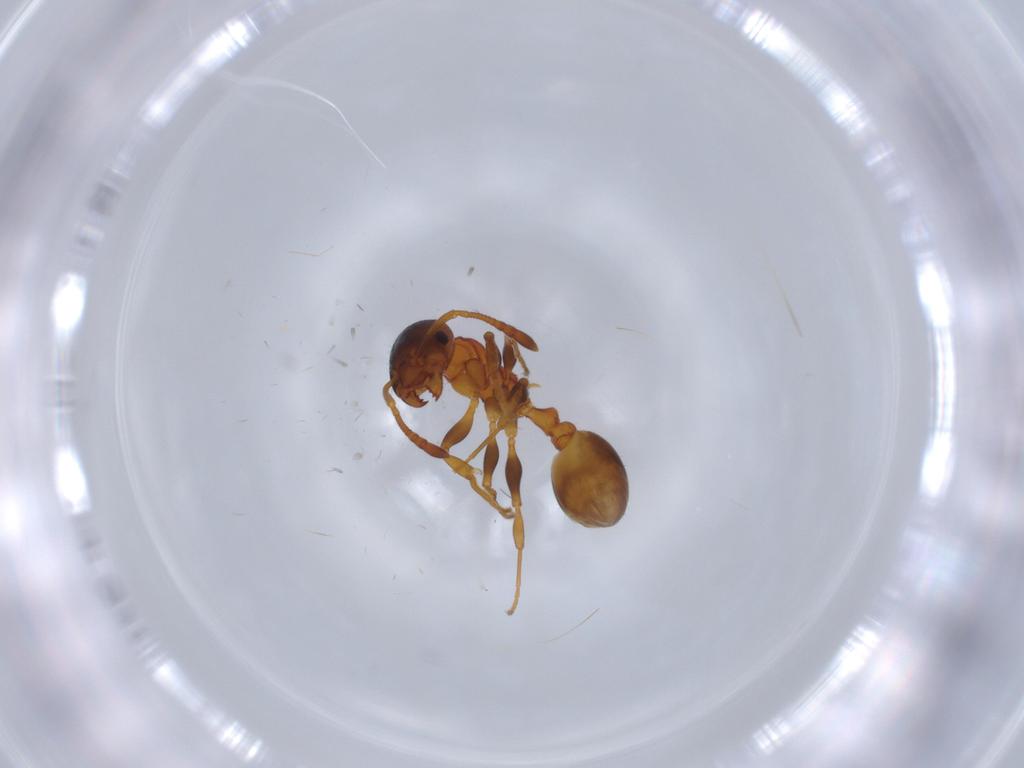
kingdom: Animalia
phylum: Arthropoda
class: Insecta
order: Hymenoptera
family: Formicidae
